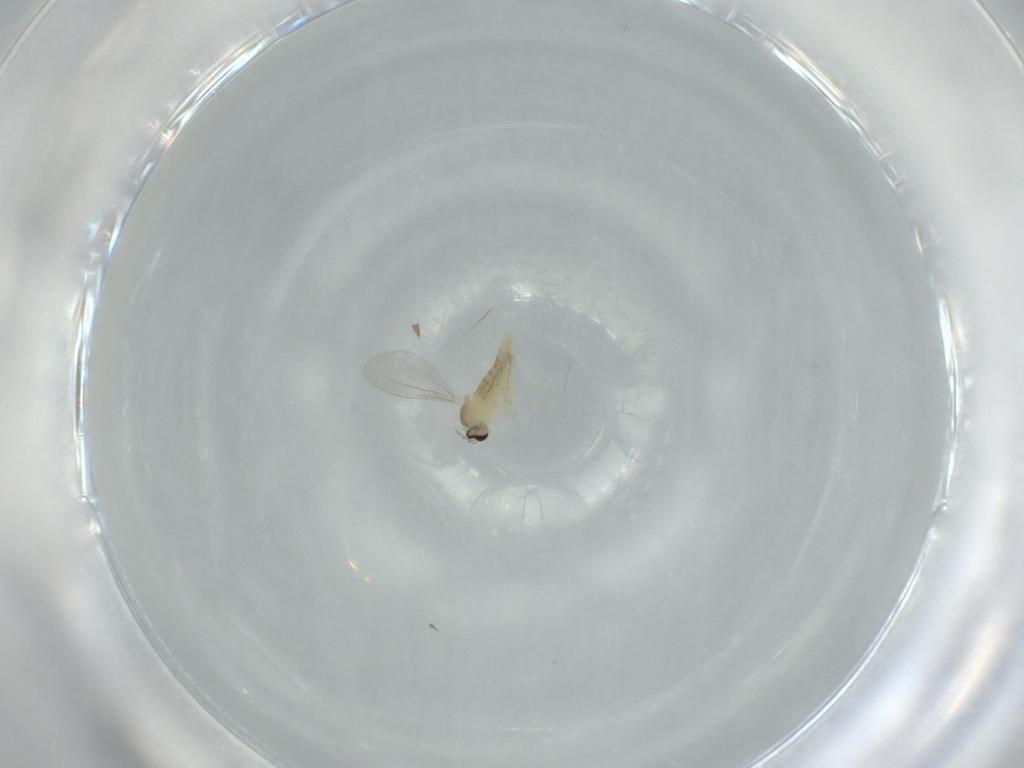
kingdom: Animalia
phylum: Arthropoda
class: Insecta
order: Diptera
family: Cecidomyiidae
